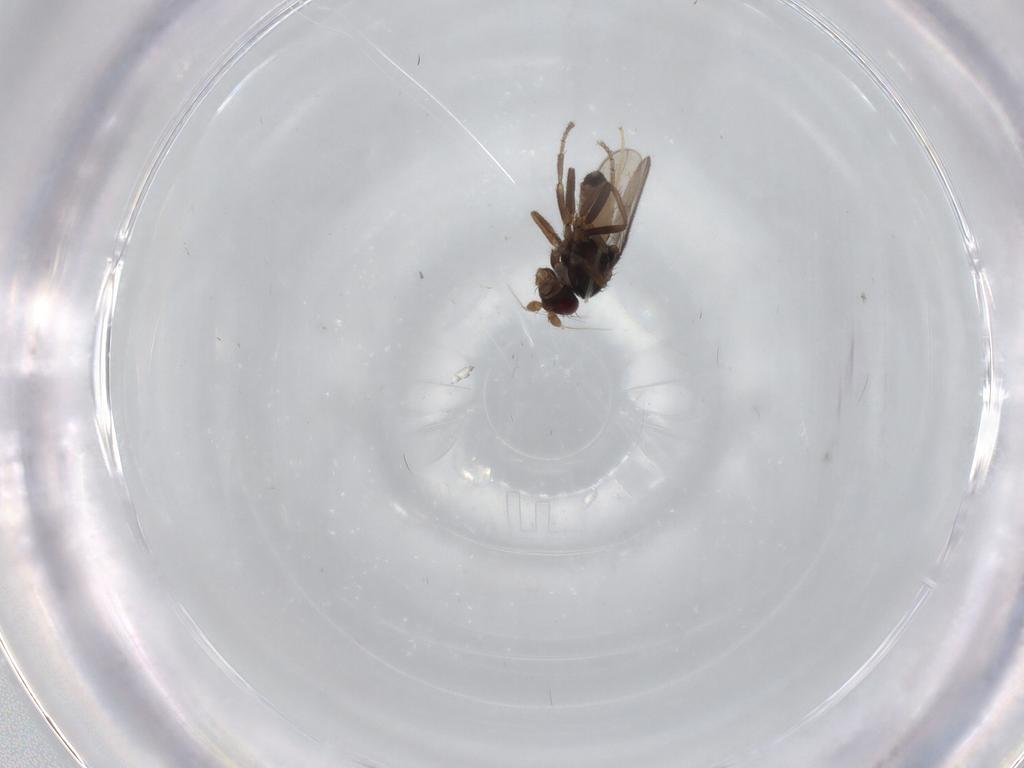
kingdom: Animalia
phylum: Arthropoda
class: Insecta
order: Diptera
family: Sphaeroceridae
